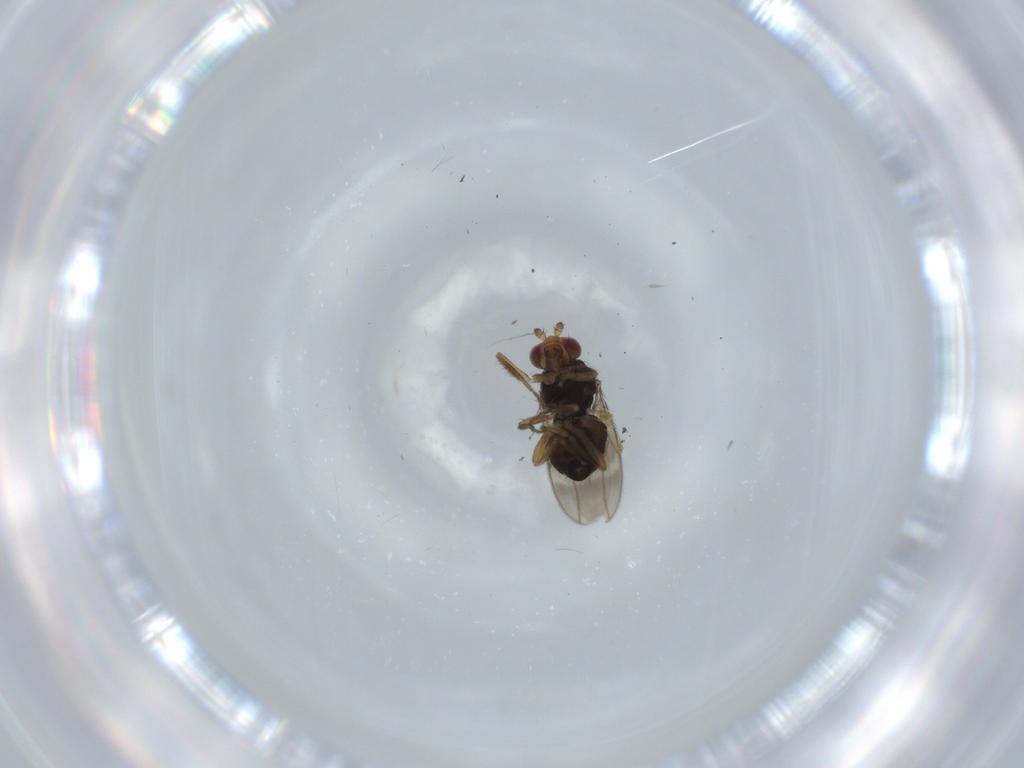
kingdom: Animalia
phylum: Arthropoda
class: Insecta
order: Diptera
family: Sphaeroceridae
